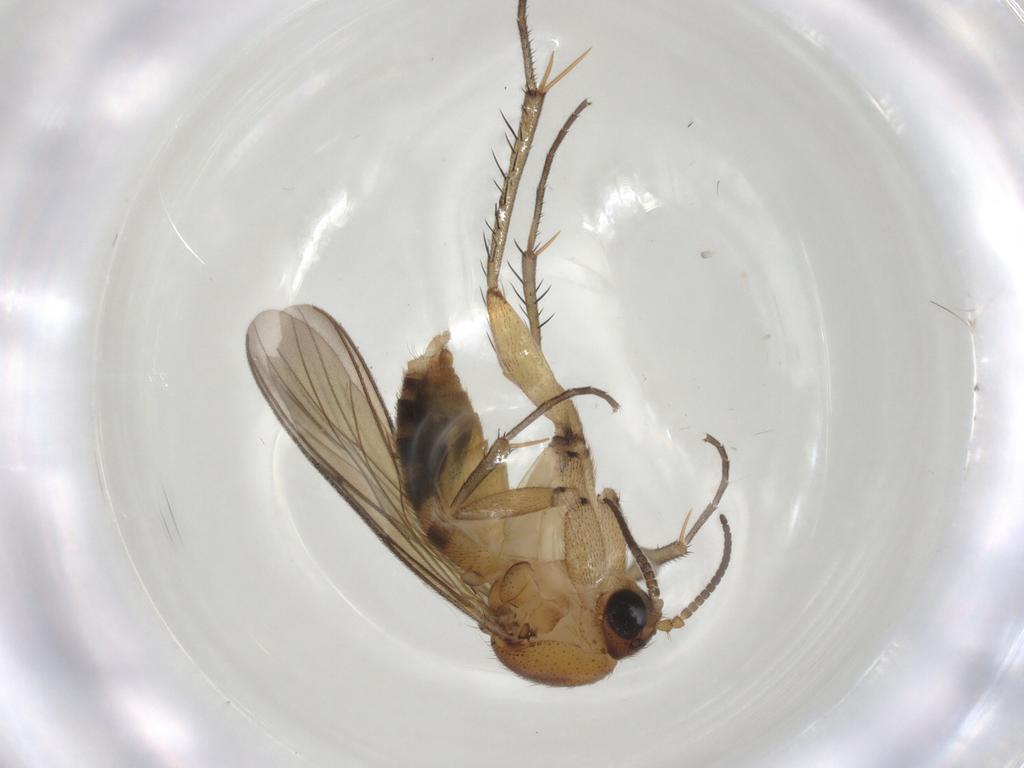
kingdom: Animalia
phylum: Arthropoda
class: Insecta
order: Diptera
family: Mycetophilidae
